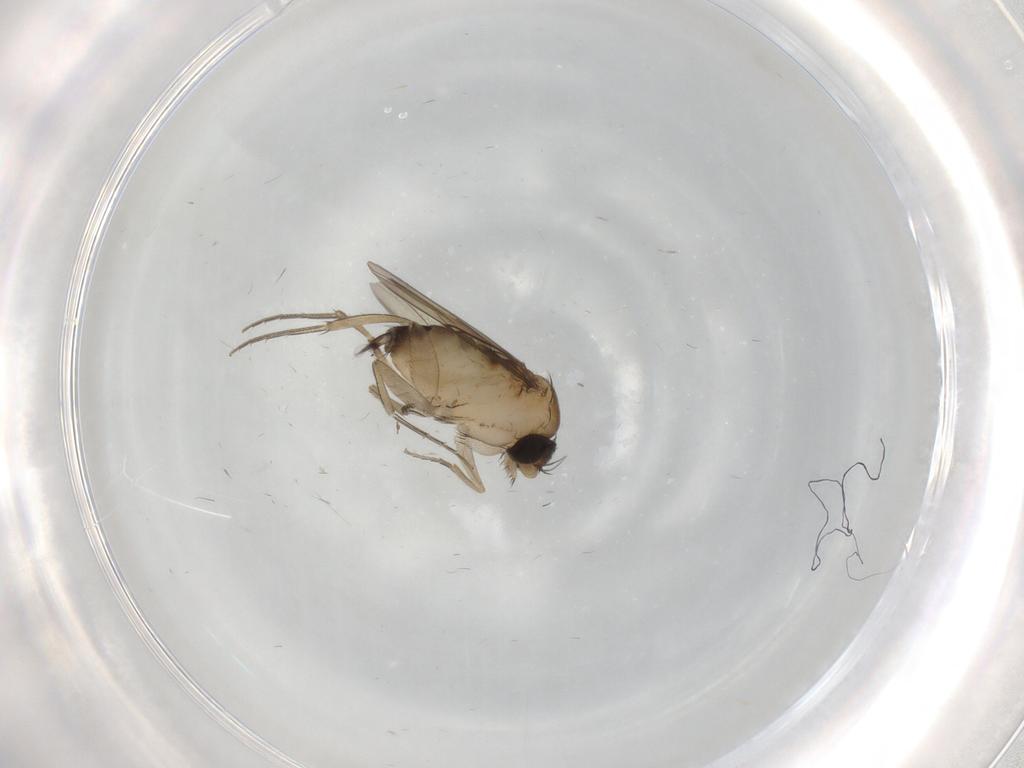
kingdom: Animalia
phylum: Arthropoda
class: Insecta
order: Diptera
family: Phoridae
